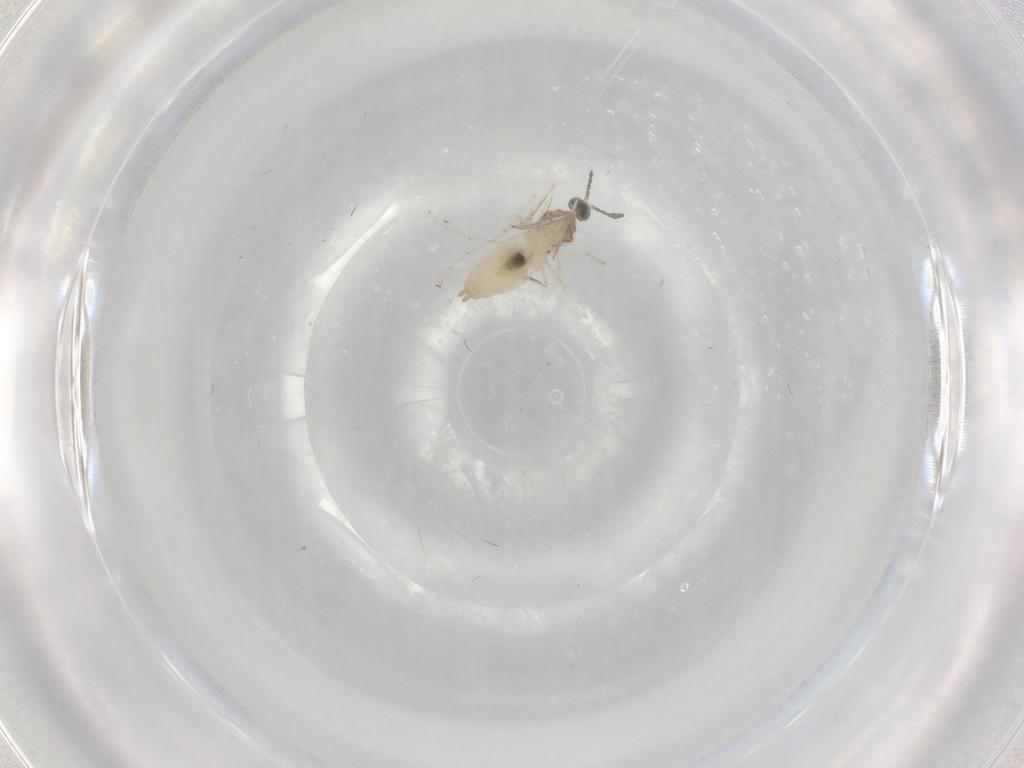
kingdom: Animalia
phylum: Arthropoda
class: Insecta
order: Diptera
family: Cecidomyiidae
